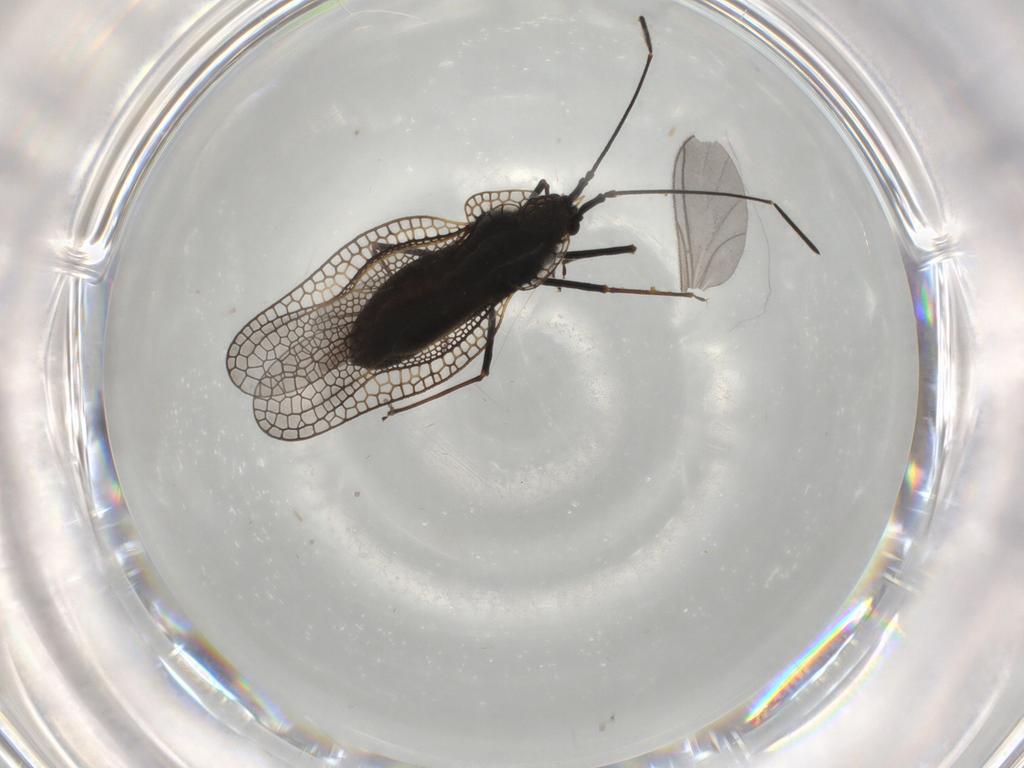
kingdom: Animalia
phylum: Arthropoda
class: Insecta
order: Hemiptera
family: Tingidae
